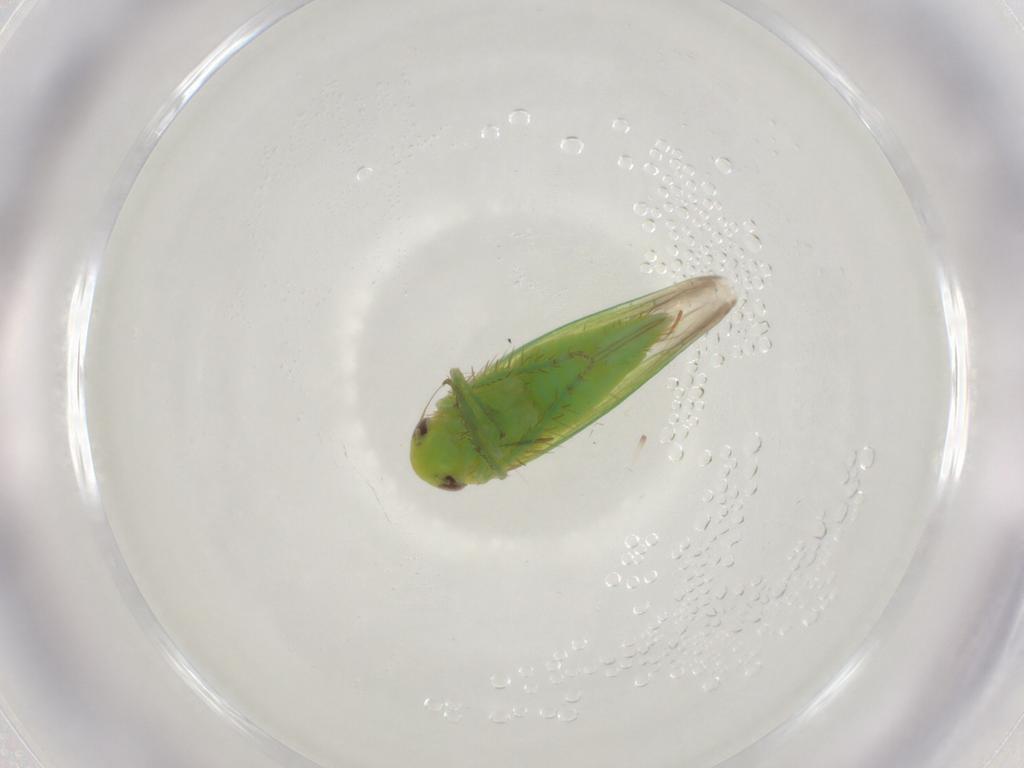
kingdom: Animalia
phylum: Arthropoda
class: Insecta
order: Hemiptera
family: Cicadellidae
